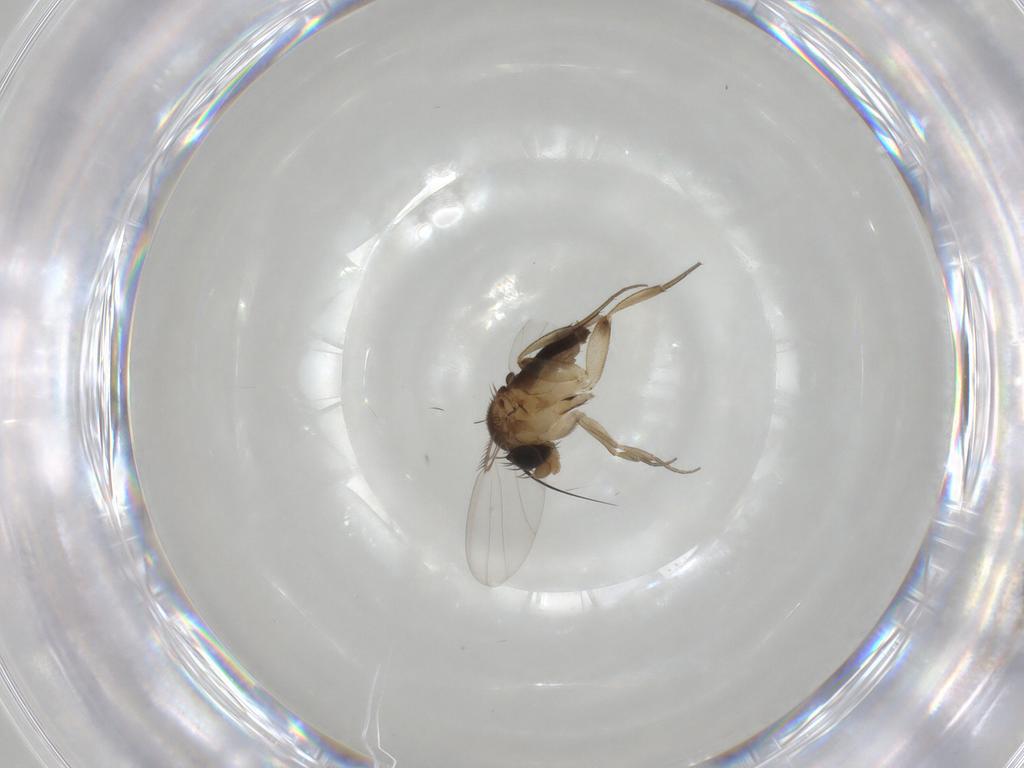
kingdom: Animalia
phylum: Arthropoda
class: Insecta
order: Diptera
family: Phoridae
